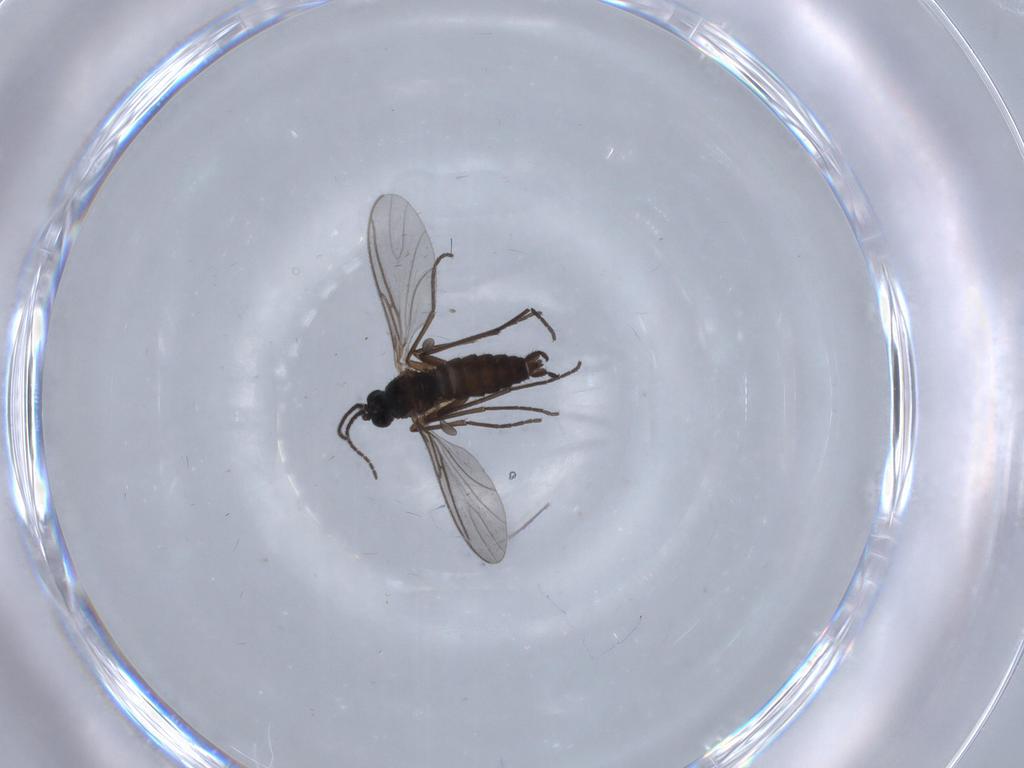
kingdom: Animalia
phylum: Arthropoda
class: Insecta
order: Diptera
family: Sciaridae
